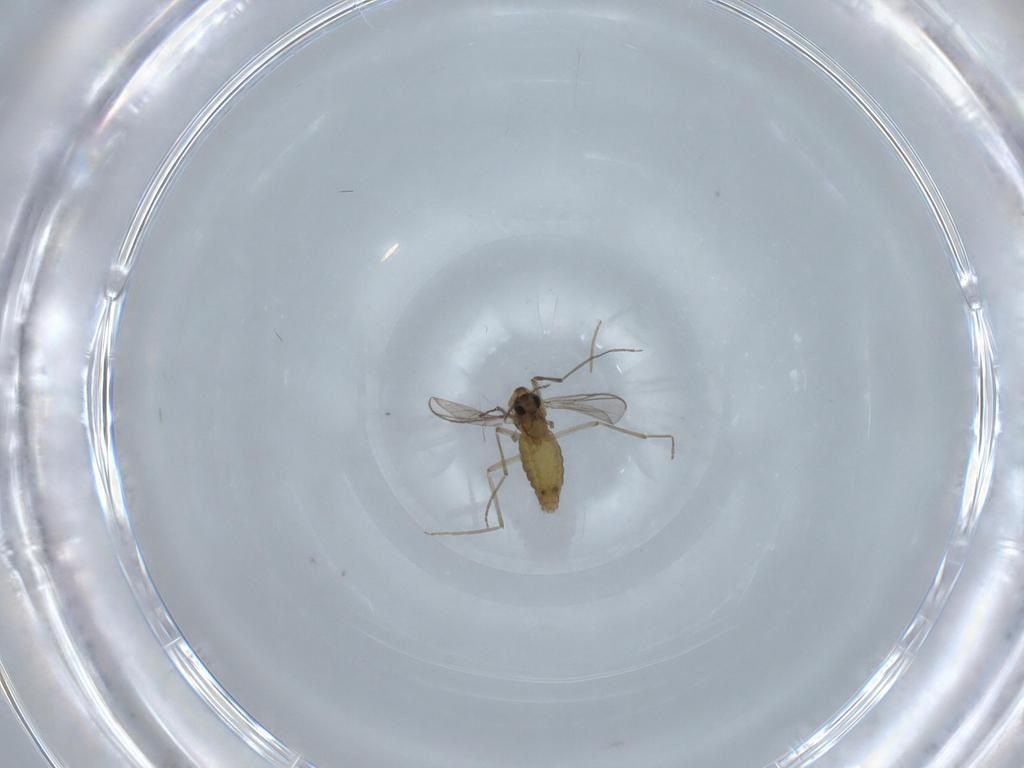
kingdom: Animalia
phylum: Arthropoda
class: Insecta
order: Diptera
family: Chironomidae
